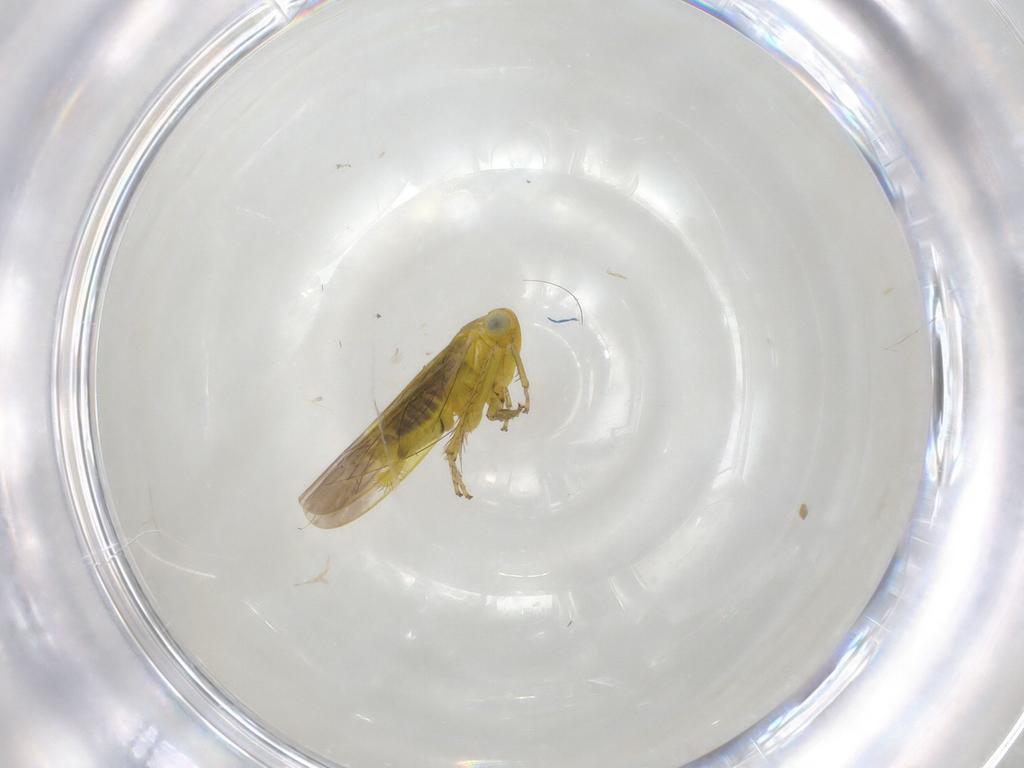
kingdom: Animalia
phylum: Arthropoda
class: Insecta
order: Hemiptera
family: Cicadellidae
